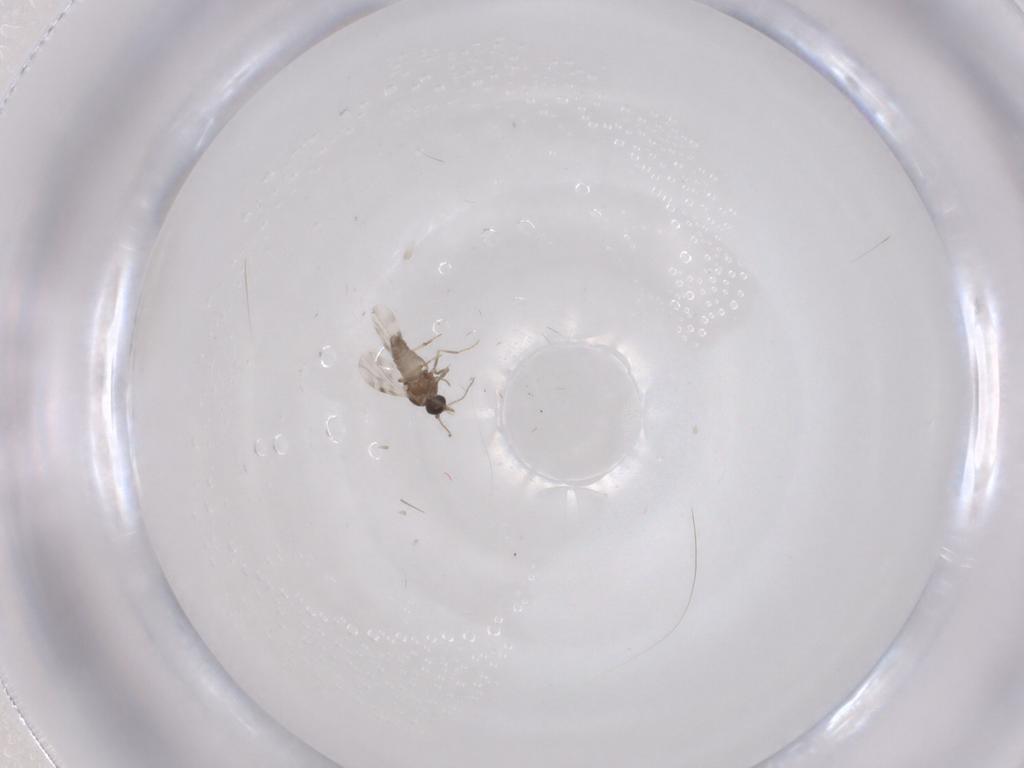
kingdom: Animalia
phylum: Arthropoda
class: Insecta
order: Diptera
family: Ceratopogonidae
